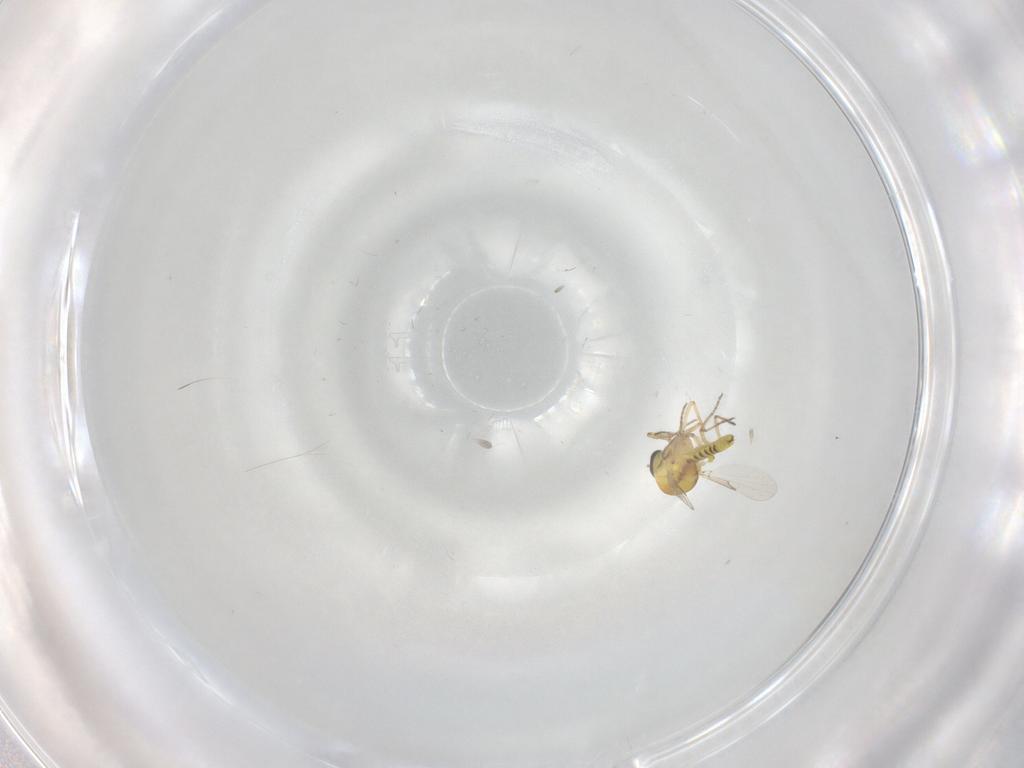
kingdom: Animalia
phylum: Arthropoda
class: Insecta
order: Diptera
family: Ceratopogonidae
